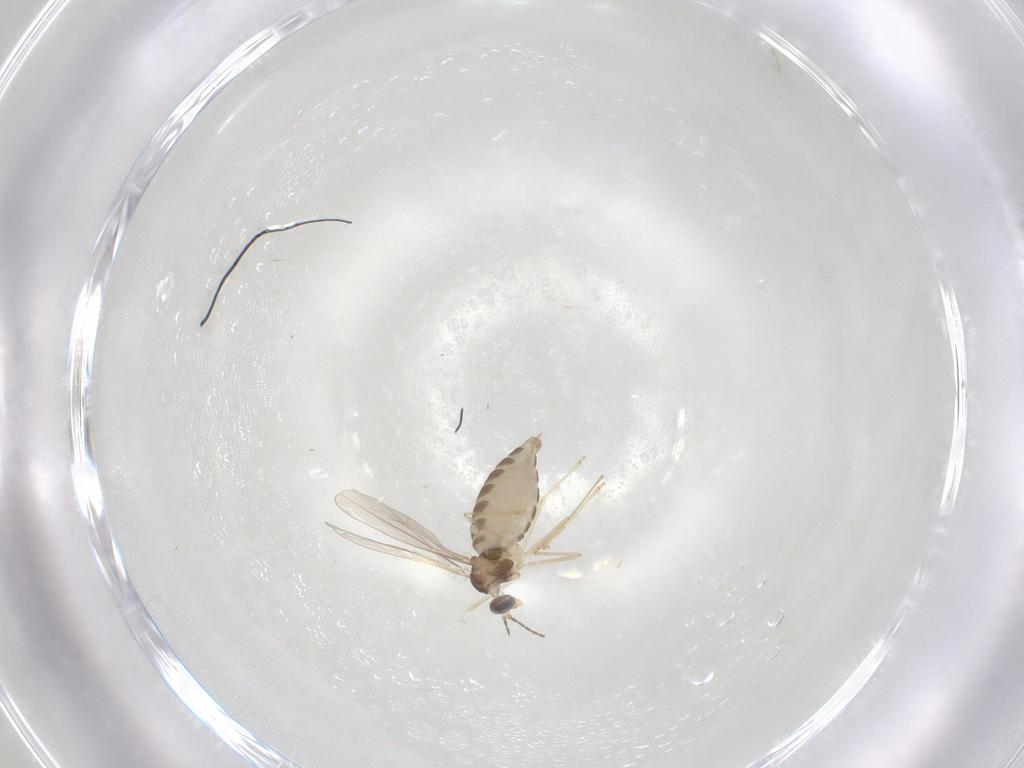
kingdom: Animalia
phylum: Arthropoda
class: Insecta
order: Diptera
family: Cecidomyiidae
